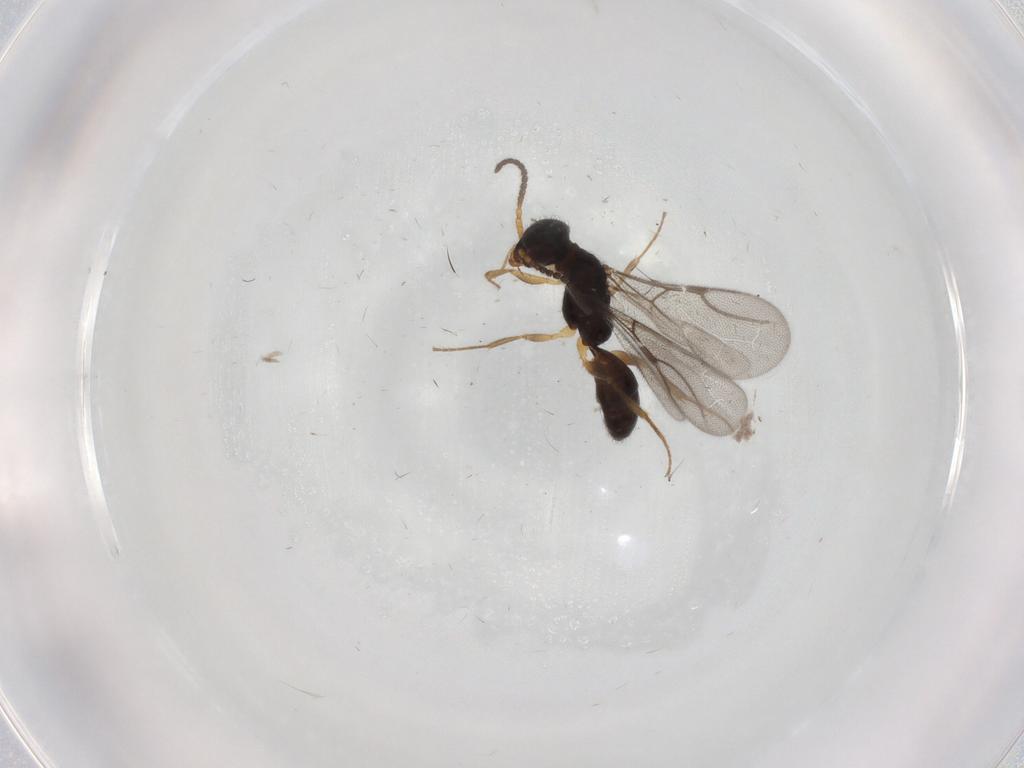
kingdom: Animalia
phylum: Arthropoda
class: Insecta
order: Hymenoptera
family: Bethylidae
